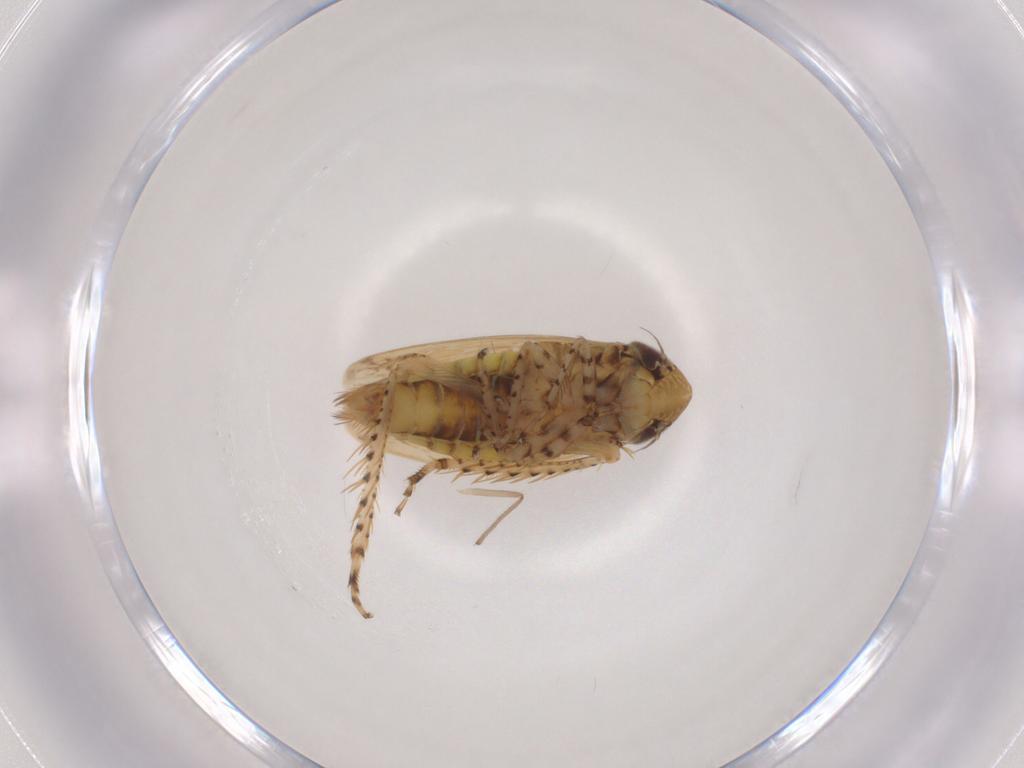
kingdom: Animalia
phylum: Arthropoda
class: Insecta
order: Hemiptera
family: Cicadellidae
